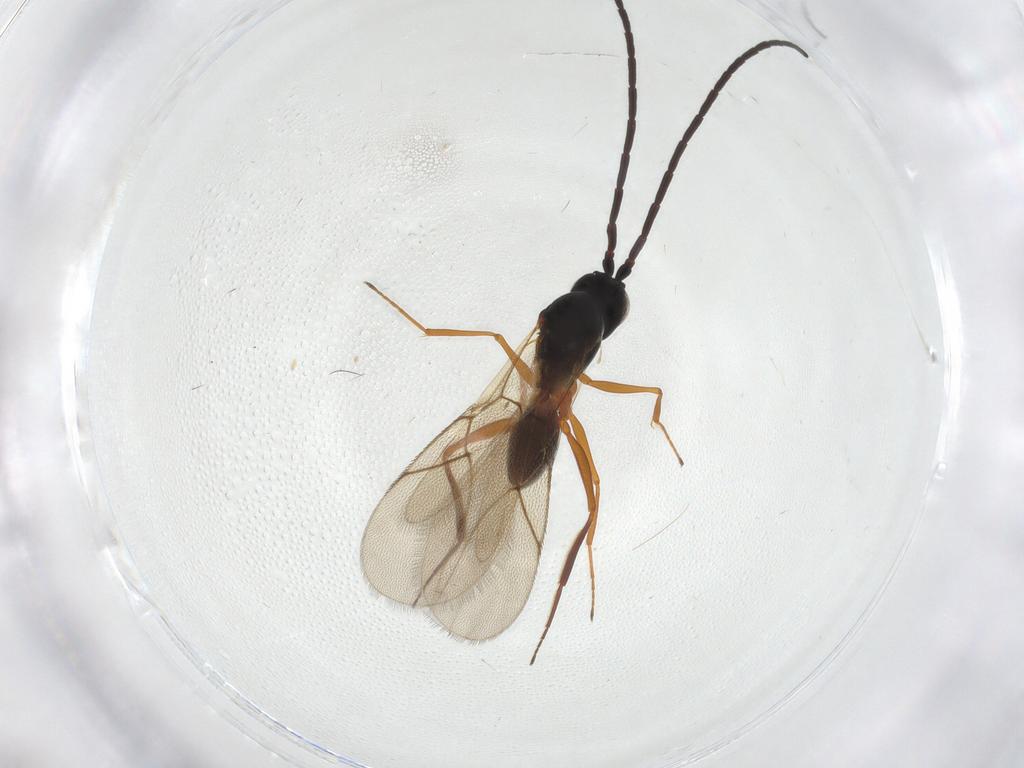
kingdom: Animalia
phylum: Arthropoda
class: Insecta
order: Hymenoptera
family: Figitidae
